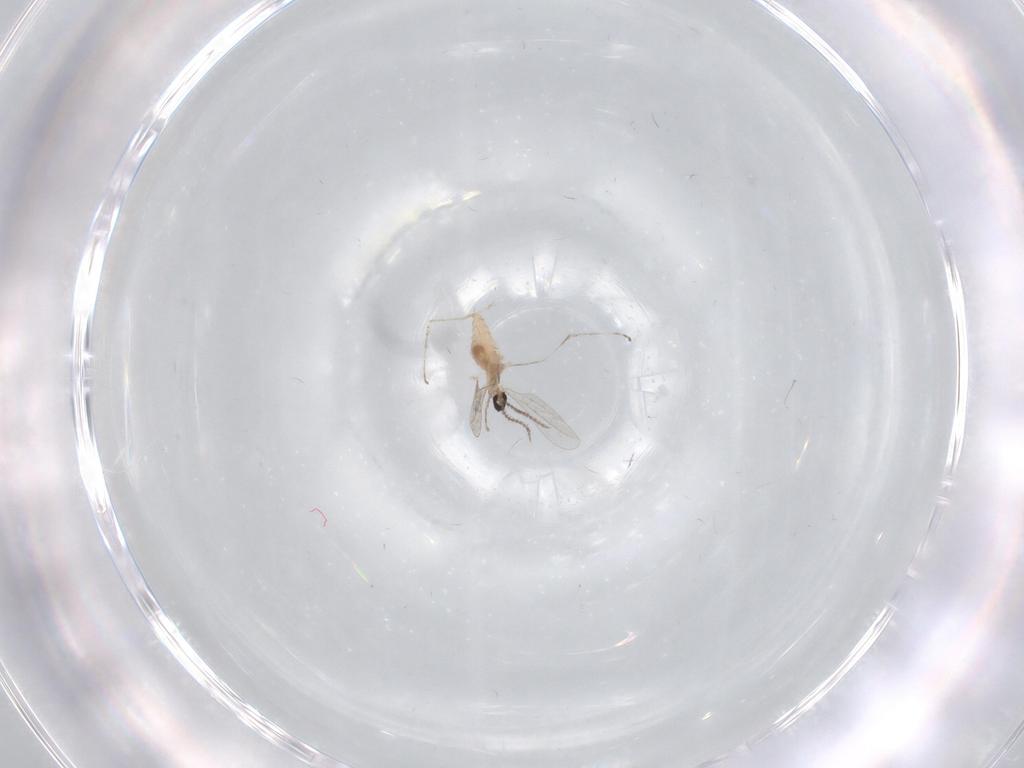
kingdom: Animalia
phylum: Arthropoda
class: Insecta
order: Diptera
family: Cecidomyiidae
